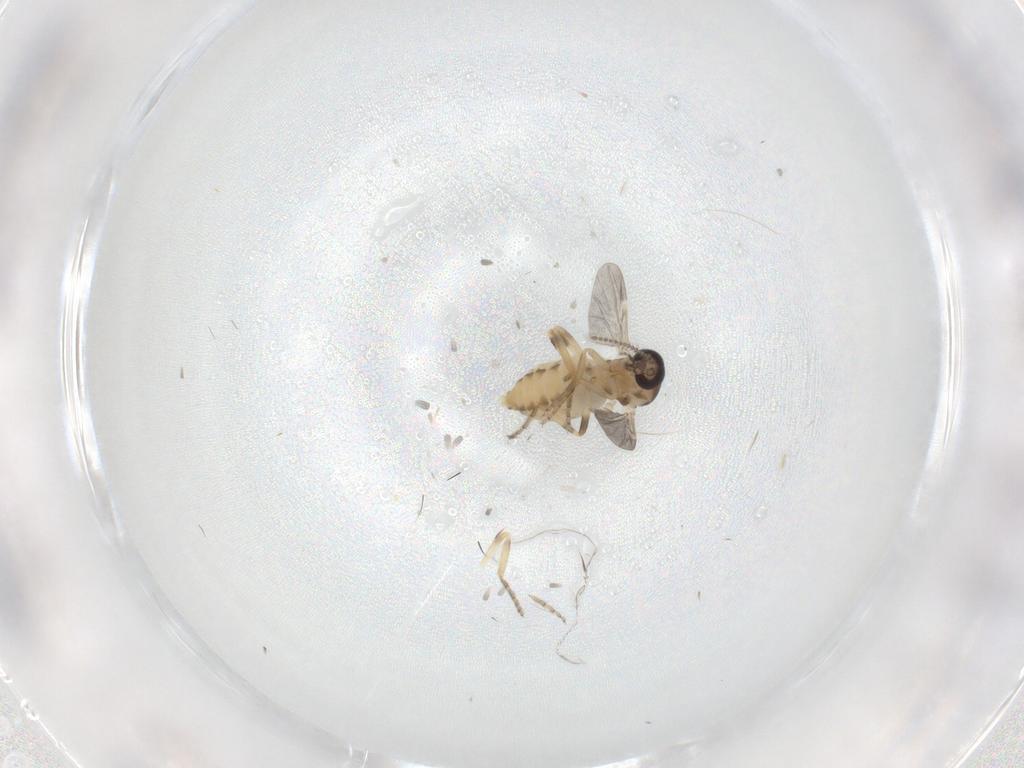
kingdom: Animalia
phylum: Arthropoda
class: Insecta
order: Diptera
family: Ceratopogonidae
